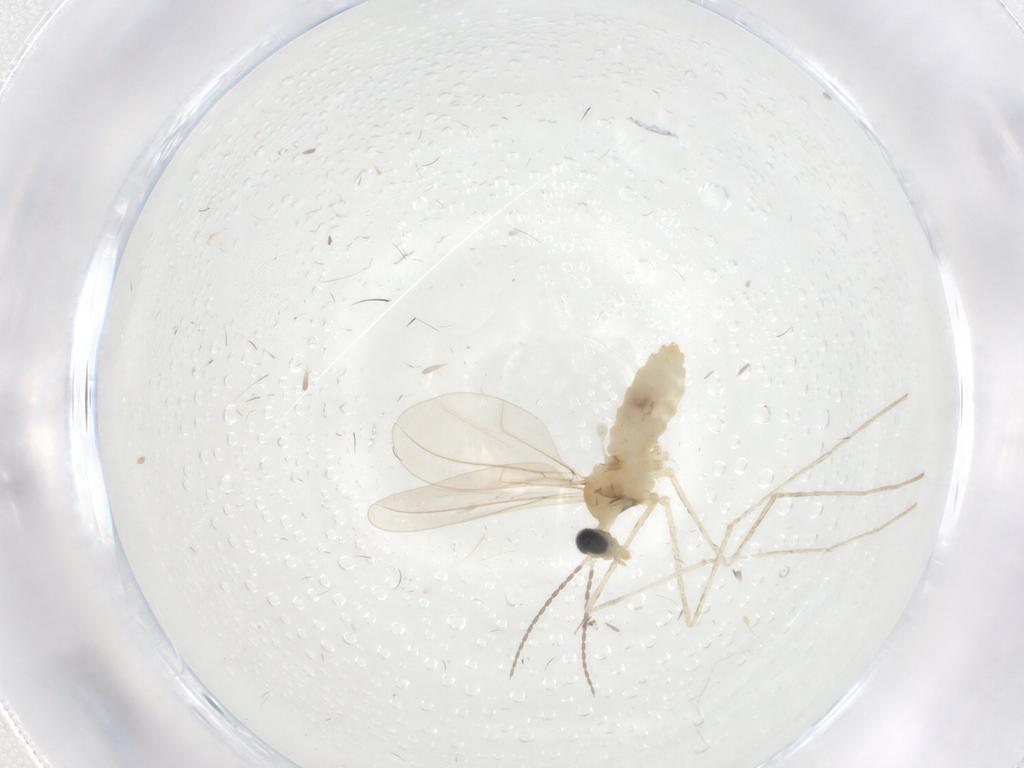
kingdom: Animalia
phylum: Arthropoda
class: Insecta
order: Diptera
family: Cecidomyiidae
